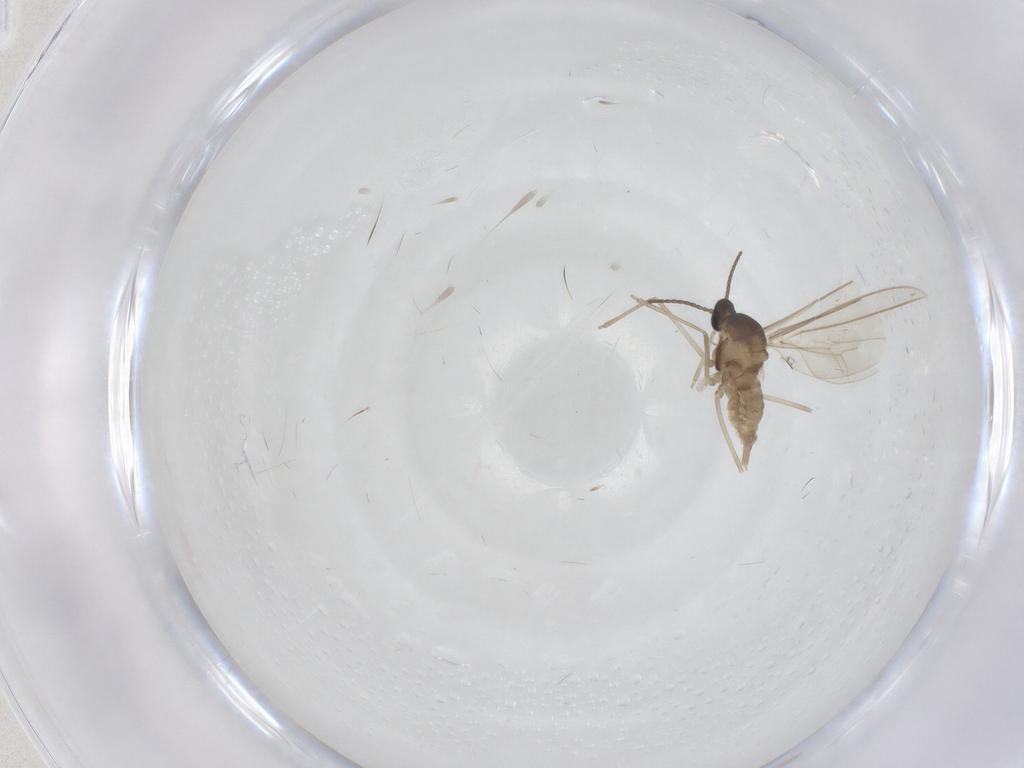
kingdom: Animalia
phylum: Arthropoda
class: Insecta
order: Diptera
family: Cecidomyiidae
